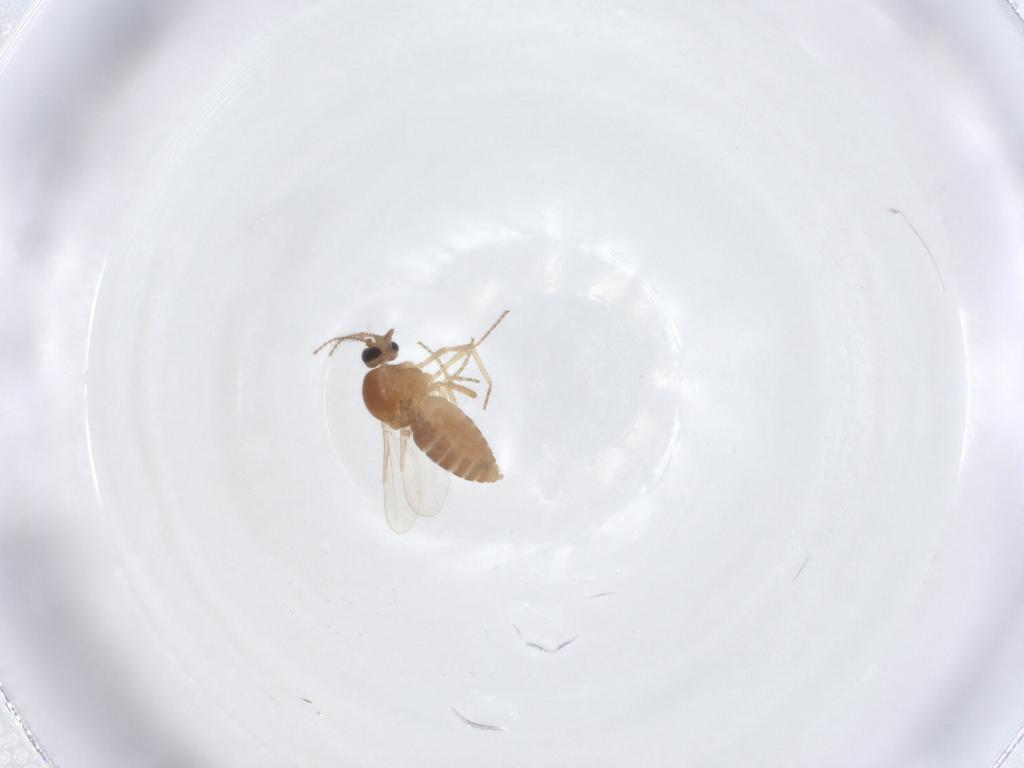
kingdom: Animalia
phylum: Arthropoda
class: Insecta
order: Diptera
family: Ceratopogonidae
